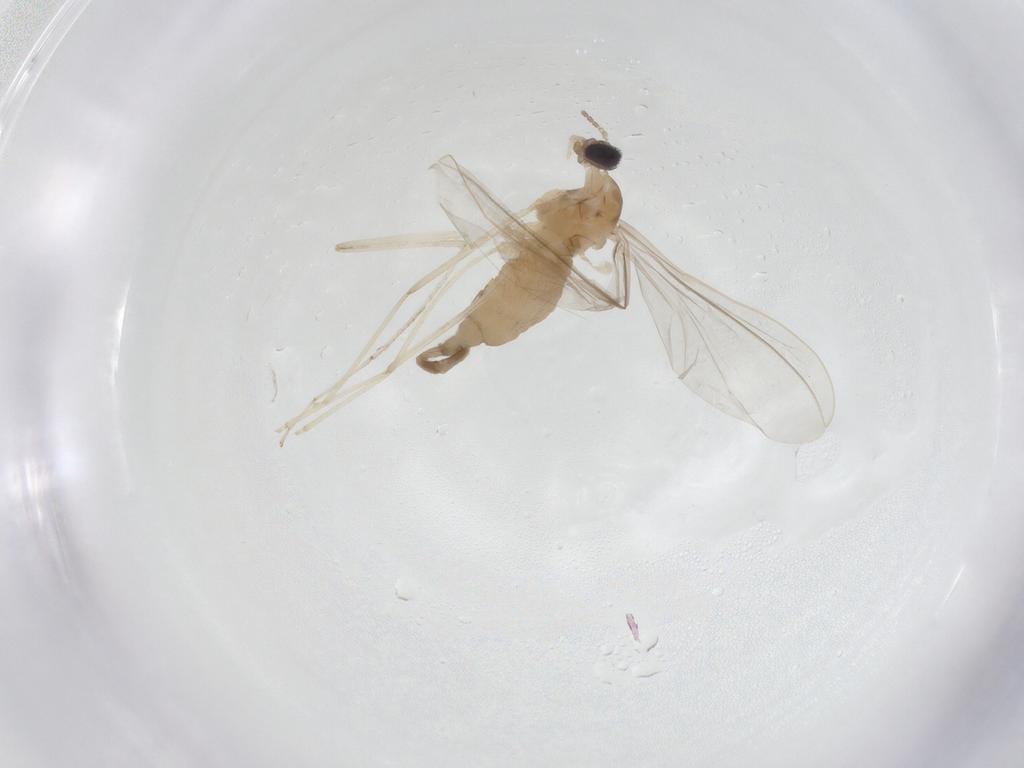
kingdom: Animalia
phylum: Arthropoda
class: Insecta
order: Diptera
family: Cecidomyiidae
